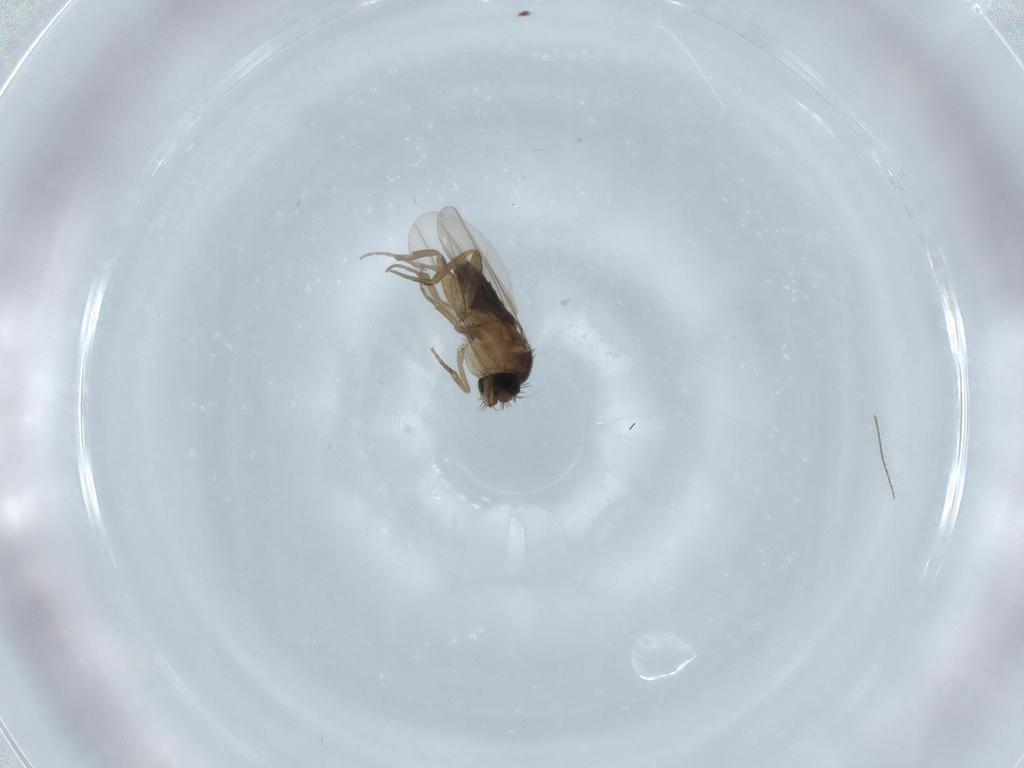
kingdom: Animalia
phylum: Arthropoda
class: Insecta
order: Diptera
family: Phoridae
